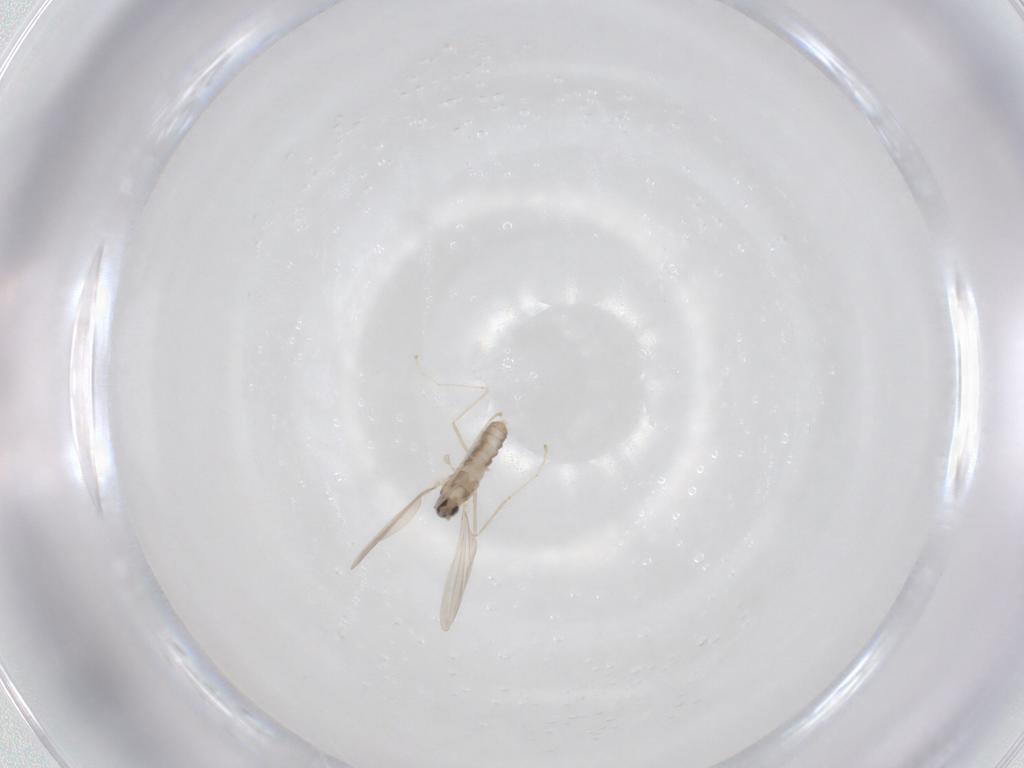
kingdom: Animalia
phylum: Arthropoda
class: Insecta
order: Diptera
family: Cecidomyiidae
